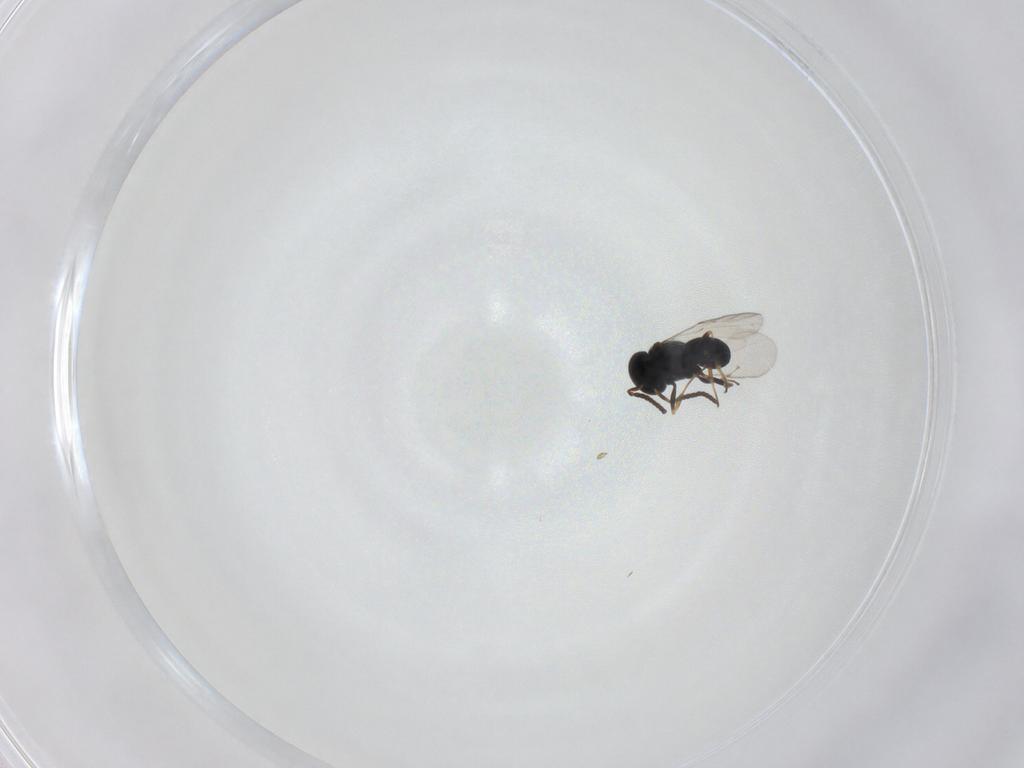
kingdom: Animalia
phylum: Arthropoda
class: Insecta
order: Hymenoptera
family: Scelionidae
